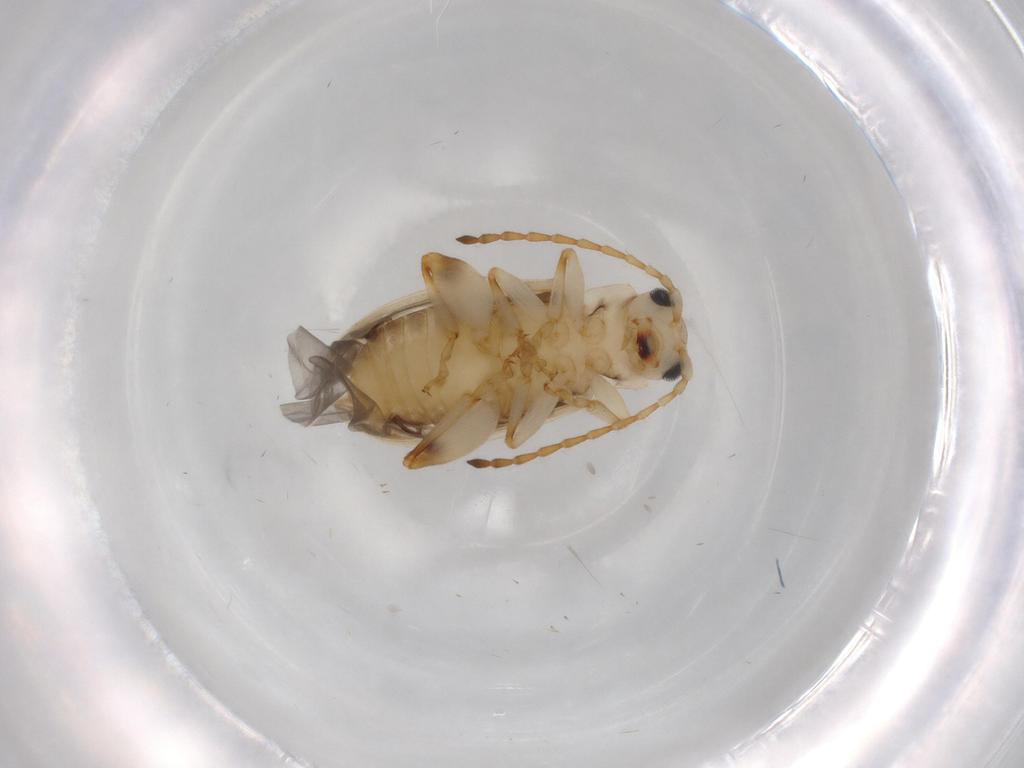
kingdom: Animalia
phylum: Arthropoda
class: Insecta
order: Coleoptera
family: Chrysomelidae
